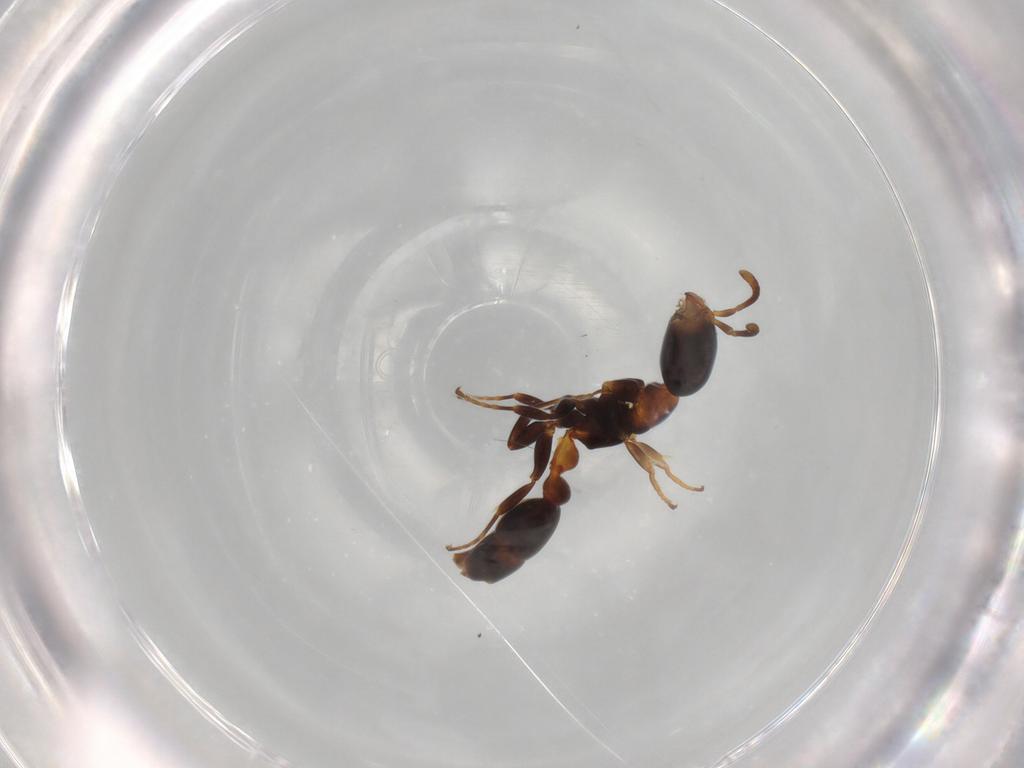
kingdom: Animalia
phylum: Arthropoda
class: Insecta
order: Hymenoptera
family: Formicidae
